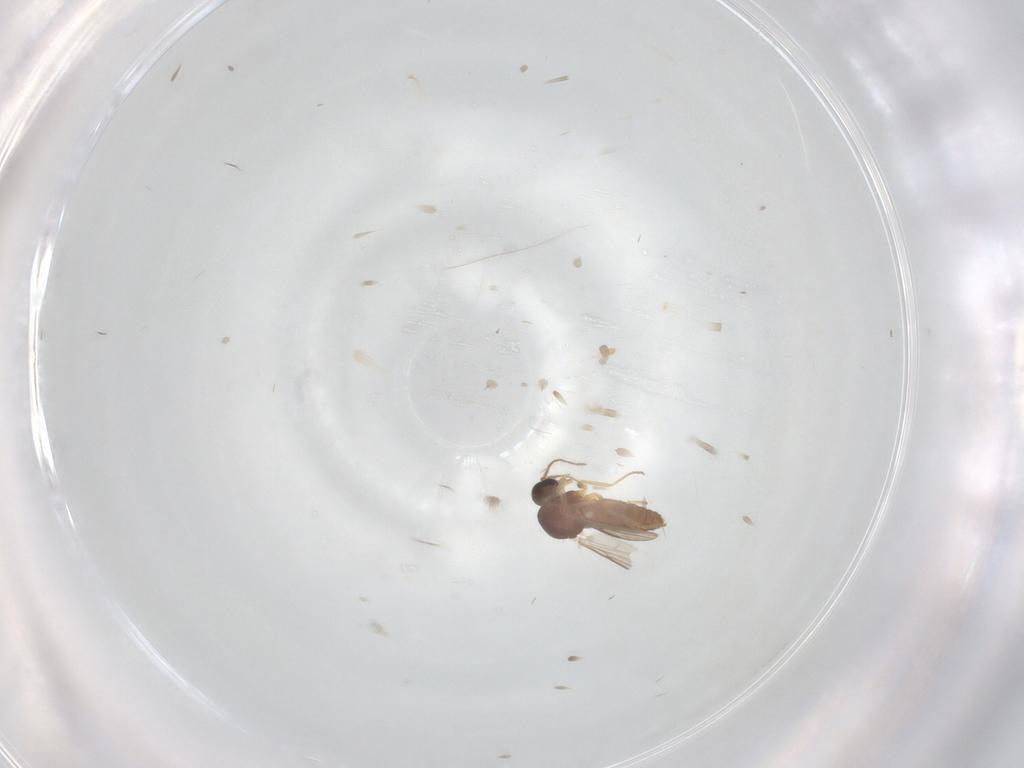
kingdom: Animalia
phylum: Arthropoda
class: Insecta
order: Diptera
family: Ceratopogonidae
